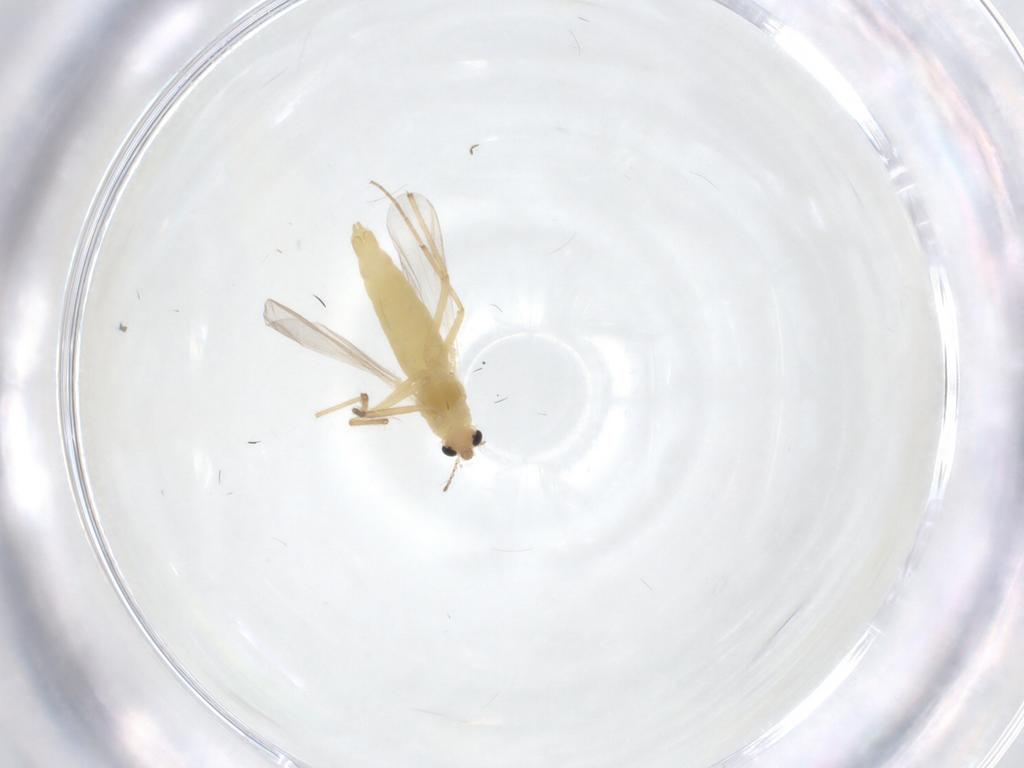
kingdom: Animalia
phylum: Arthropoda
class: Insecta
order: Diptera
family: Chironomidae
